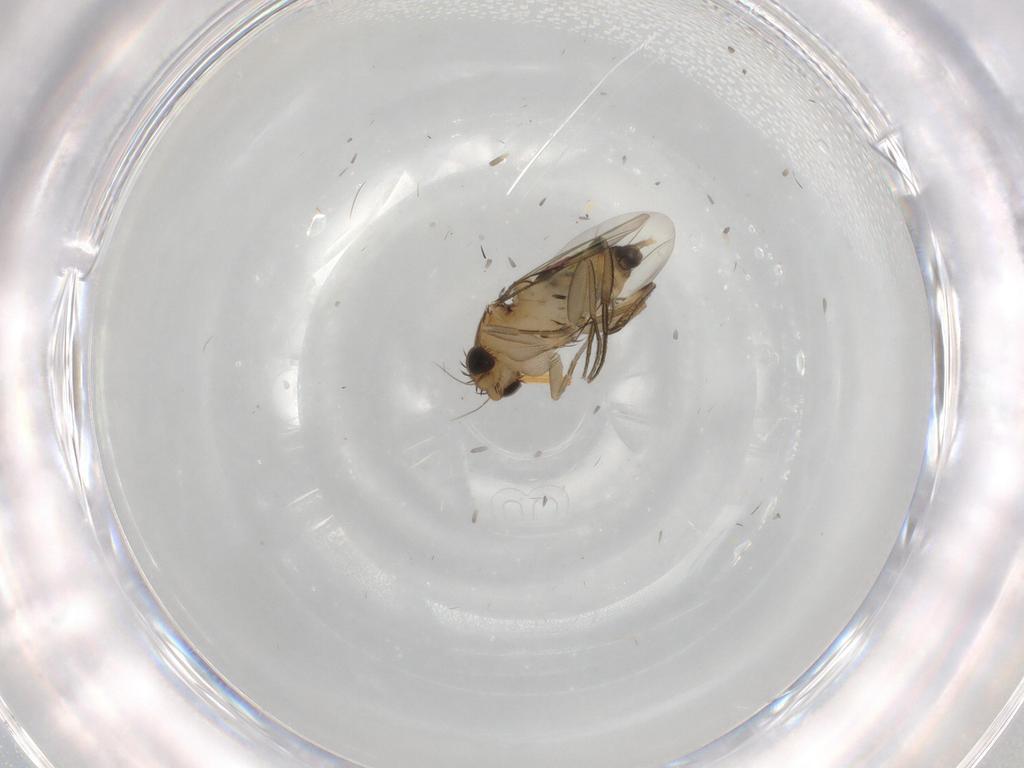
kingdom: Animalia
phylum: Arthropoda
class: Insecta
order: Diptera
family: Phoridae
